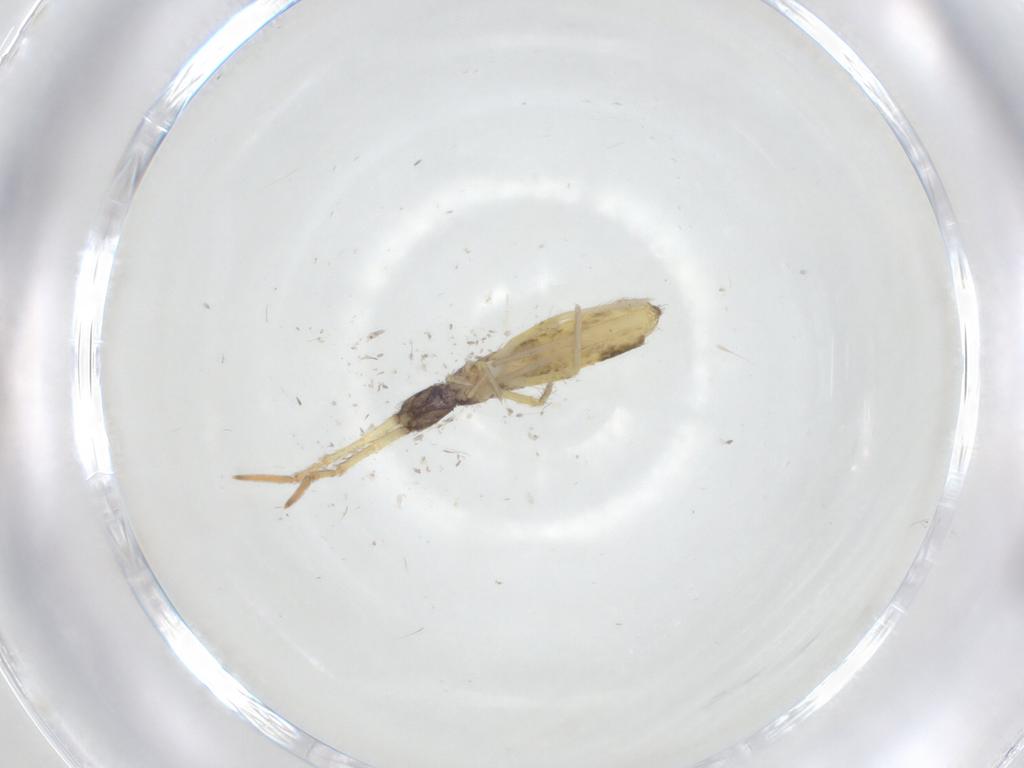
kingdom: Animalia
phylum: Arthropoda
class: Collembola
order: Entomobryomorpha
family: Entomobryidae
